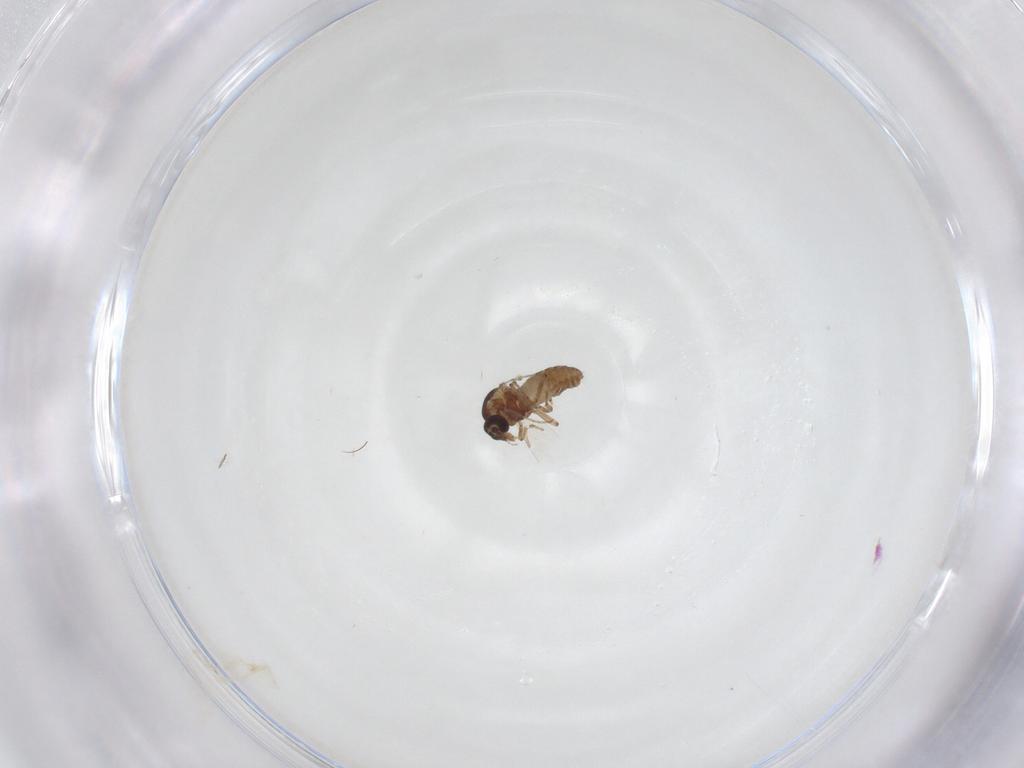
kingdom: Animalia
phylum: Arthropoda
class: Insecta
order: Diptera
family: Ceratopogonidae
